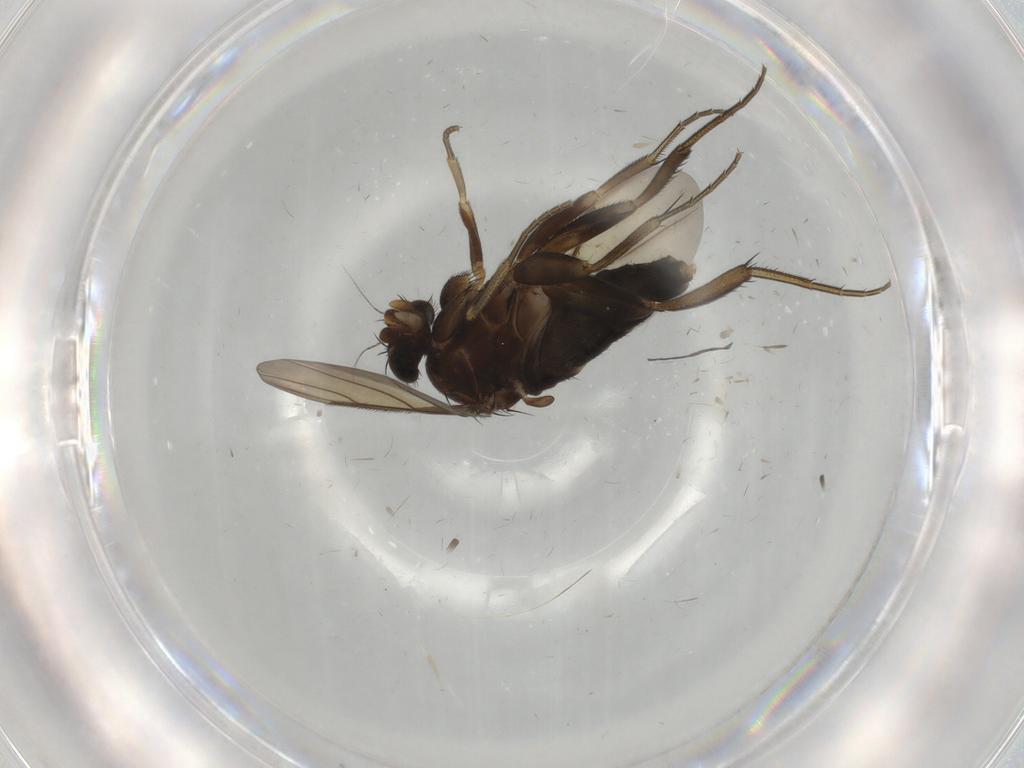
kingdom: Animalia
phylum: Arthropoda
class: Insecta
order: Diptera
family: Phoridae
